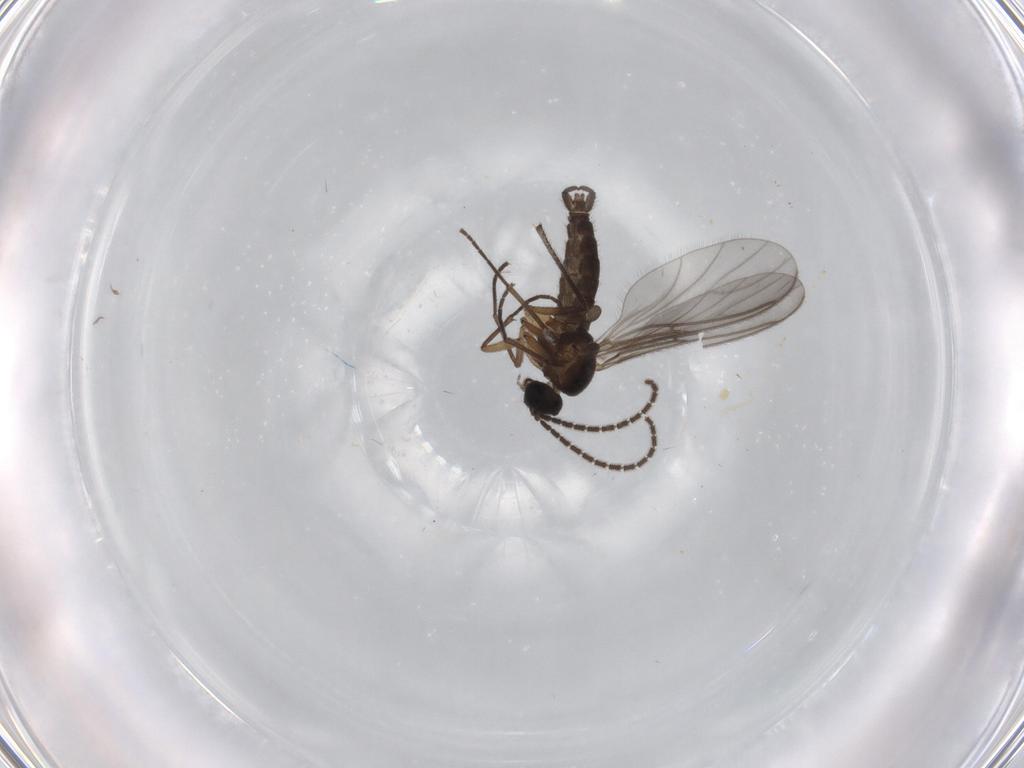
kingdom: Animalia
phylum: Arthropoda
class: Insecta
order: Diptera
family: Sciaridae
